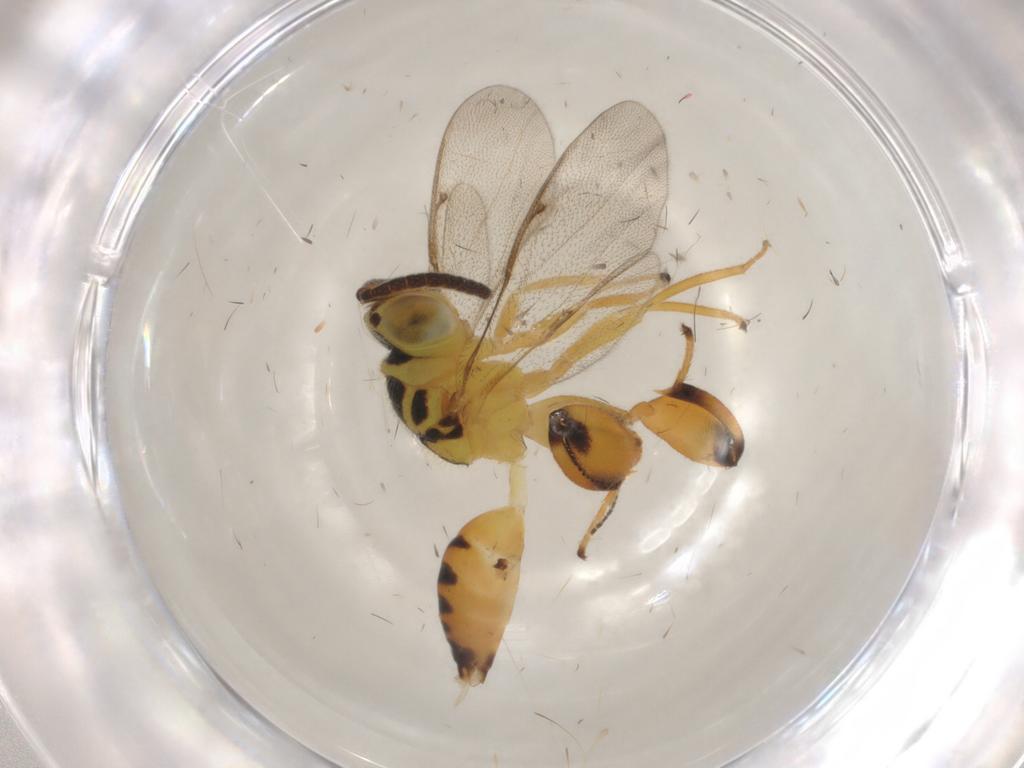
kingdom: Animalia
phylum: Arthropoda
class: Insecta
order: Hymenoptera
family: Chalcididae
